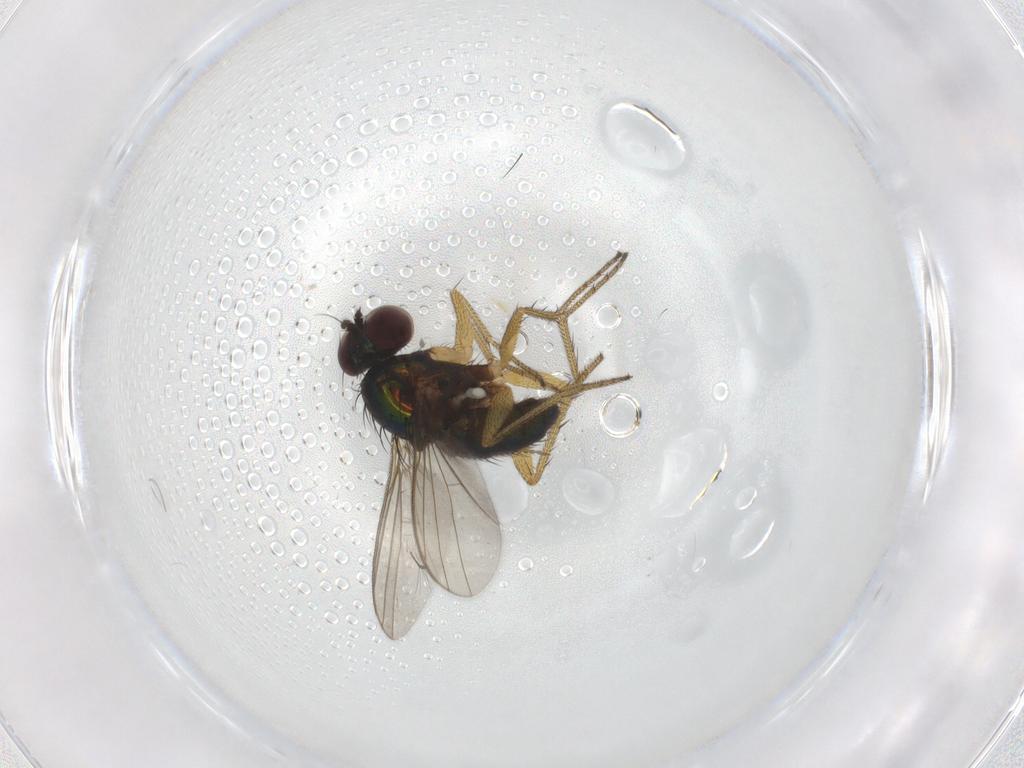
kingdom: Animalia
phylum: Arthropoda
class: Insecta
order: Diptera
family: Sciaridae
